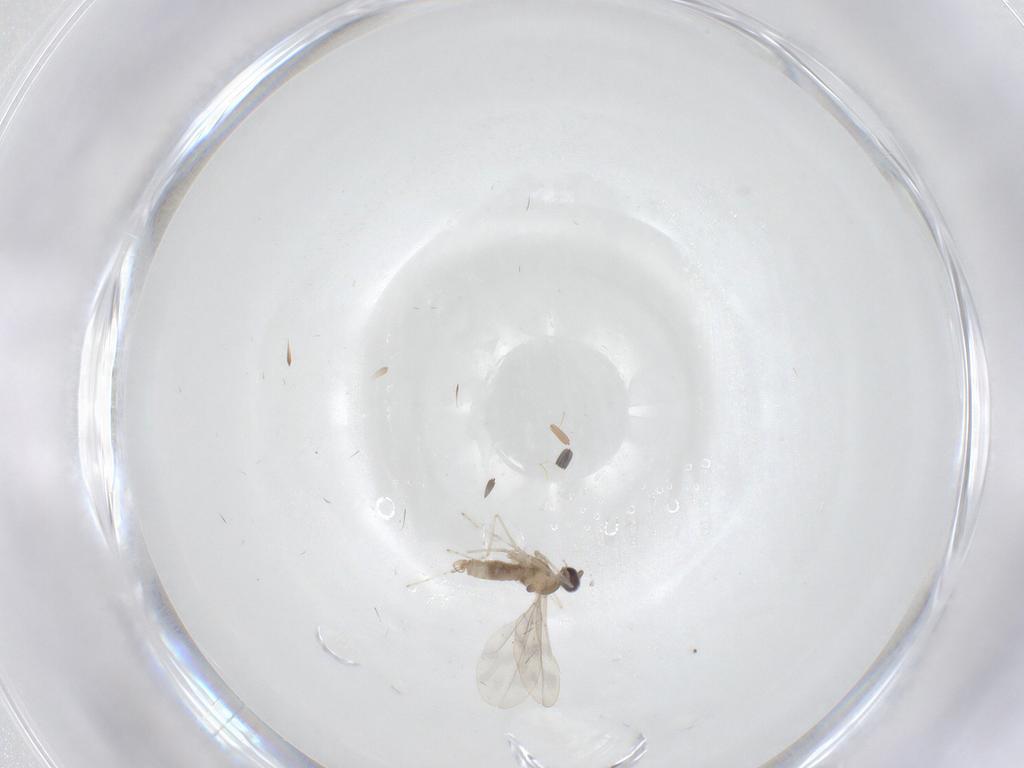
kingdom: Animalia
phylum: Arthropoda
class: Insecta
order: Diptera
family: Cecidomyiidae
